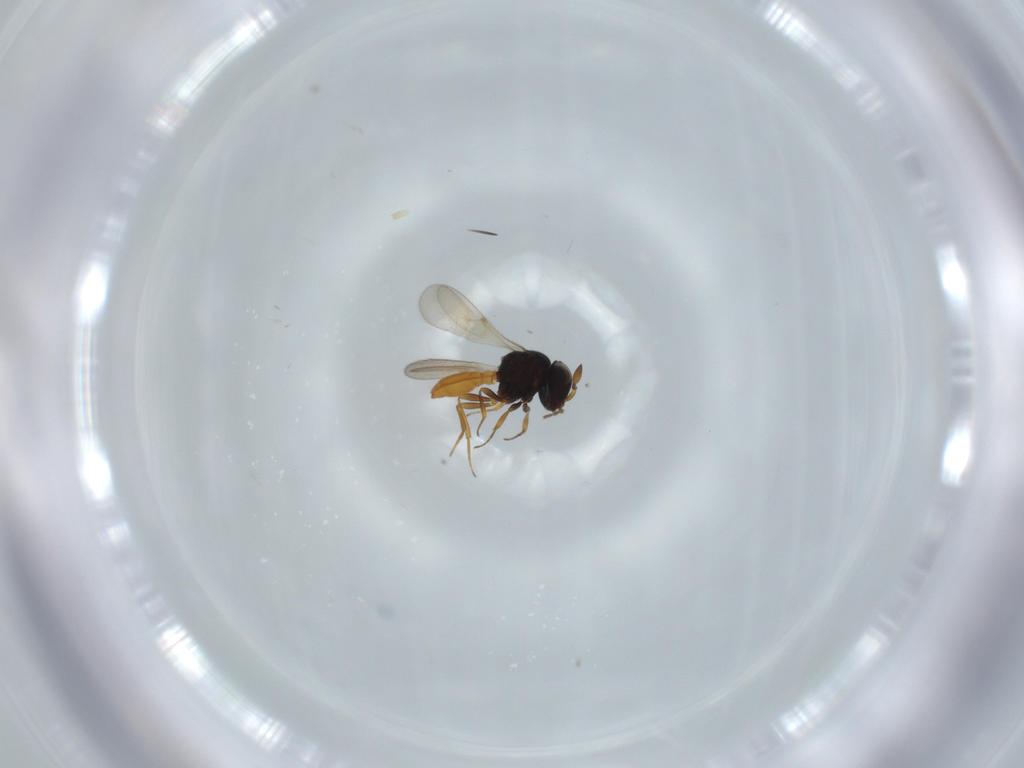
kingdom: Animalia
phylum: Arthropoda
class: Insecta
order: Hymenoptera
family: Scelionidae
